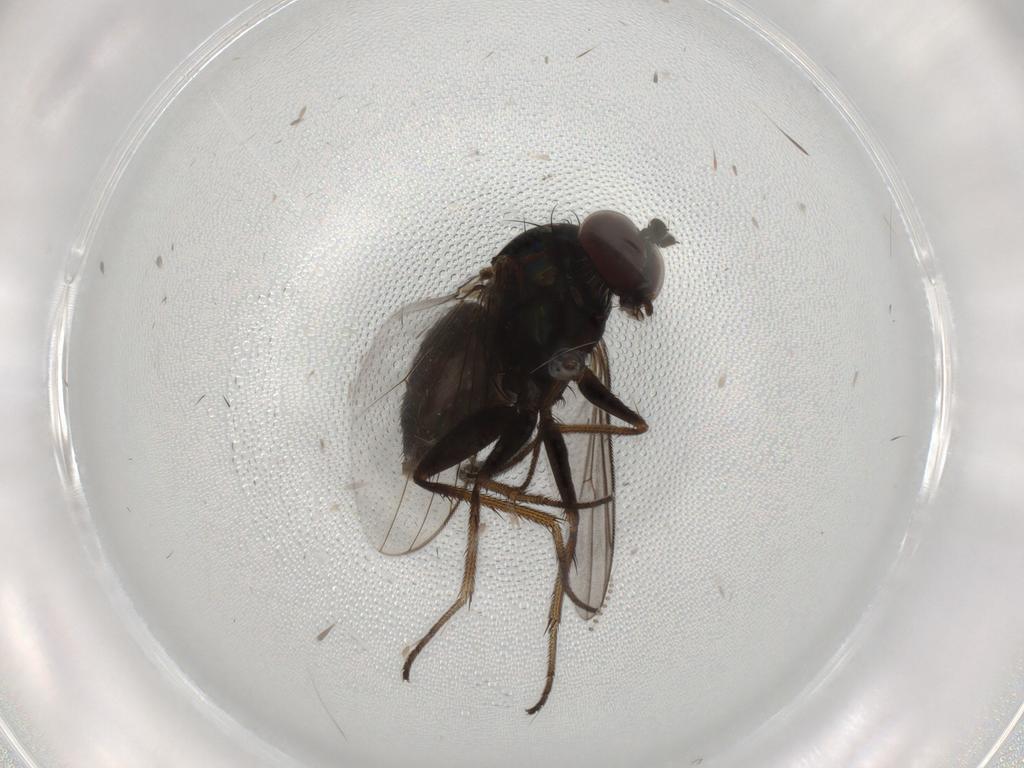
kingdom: Animalia
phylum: Arthropoda
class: Insecta
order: Diptera
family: Dolichopodidae
